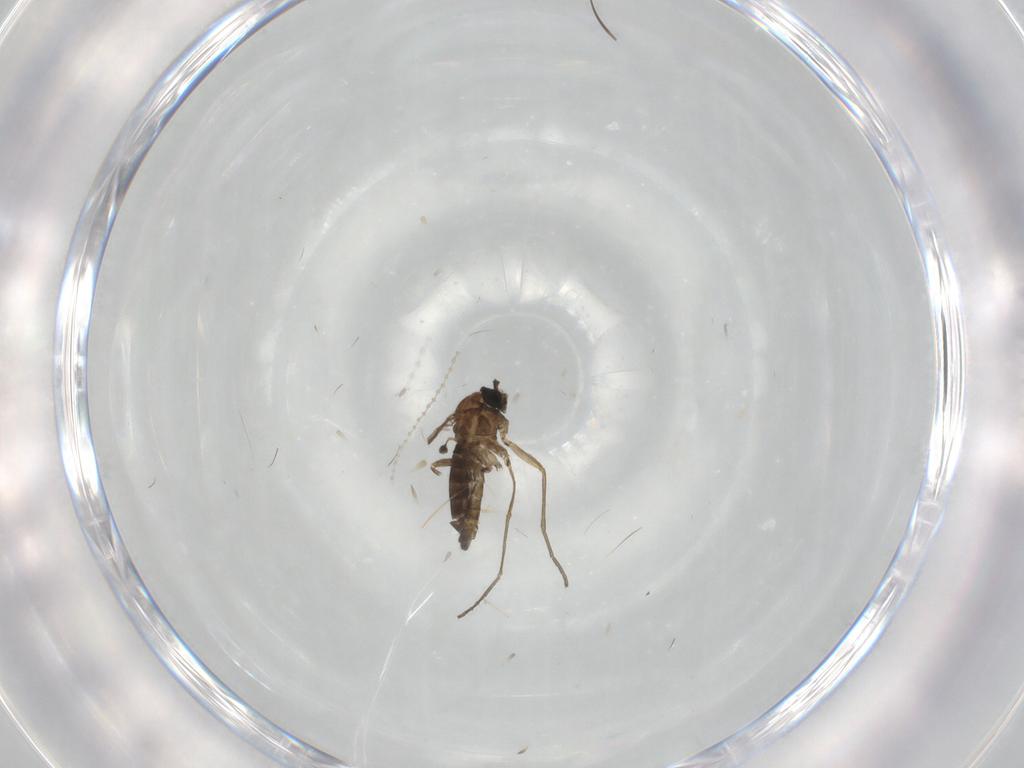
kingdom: Animalia
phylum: Arthropoda
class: Insecta
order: Diptera
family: Sciaridae
